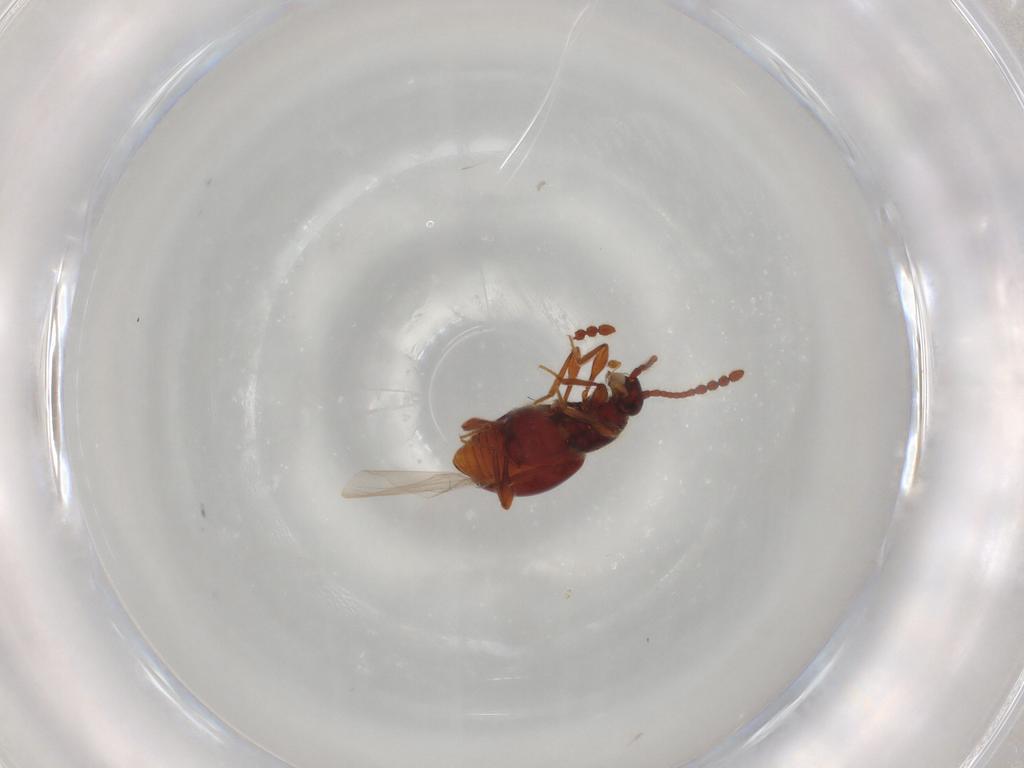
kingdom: Animalia
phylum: Arthropoda
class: Insecta
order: Coleoptera
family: Staphylinidae
